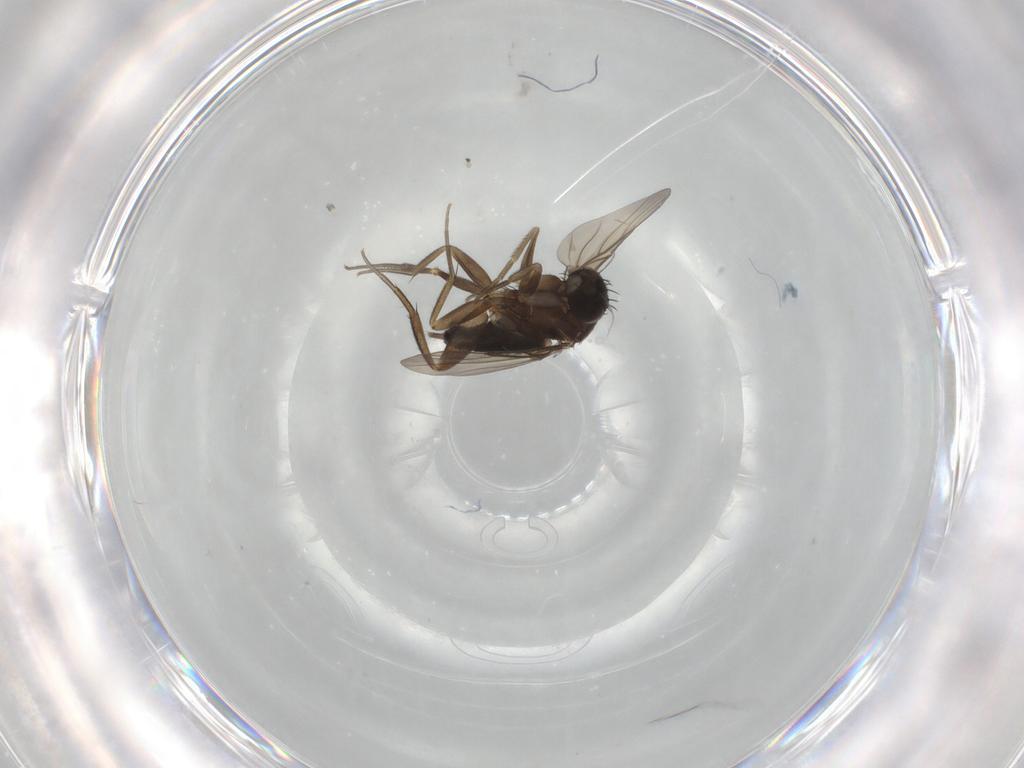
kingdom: Animalia
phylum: Arthropoda
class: Insecta
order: Diptera
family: Phoridae
